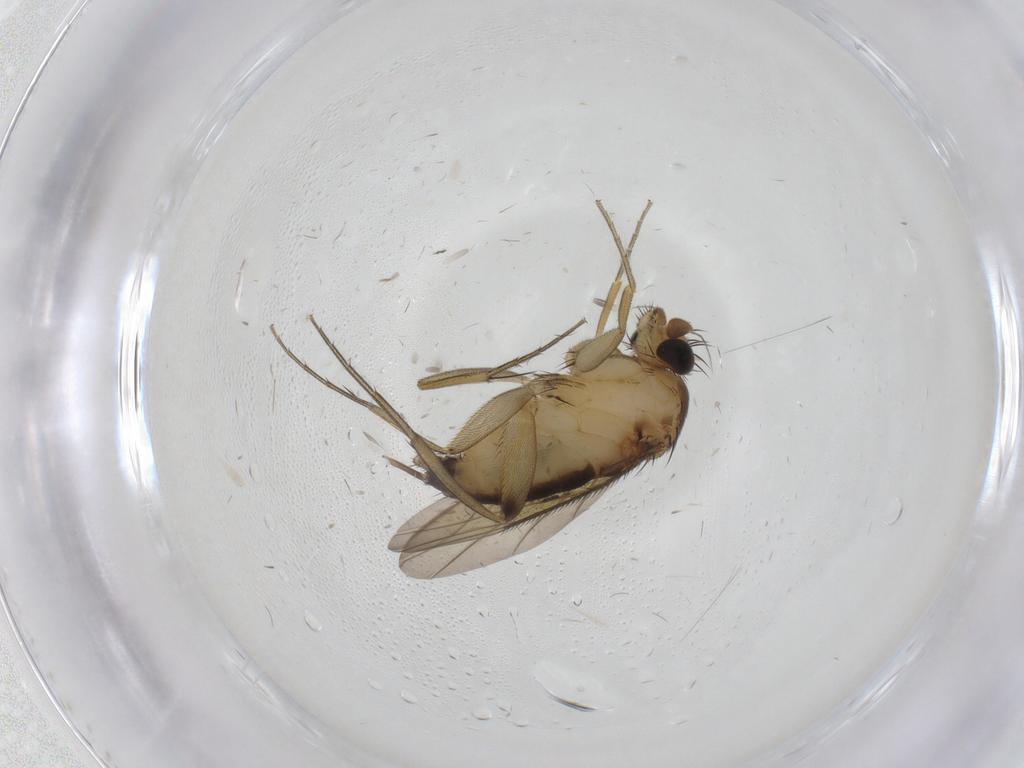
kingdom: Animalia
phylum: Arthropoda
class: Insecta
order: Diptera
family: Phoridae
